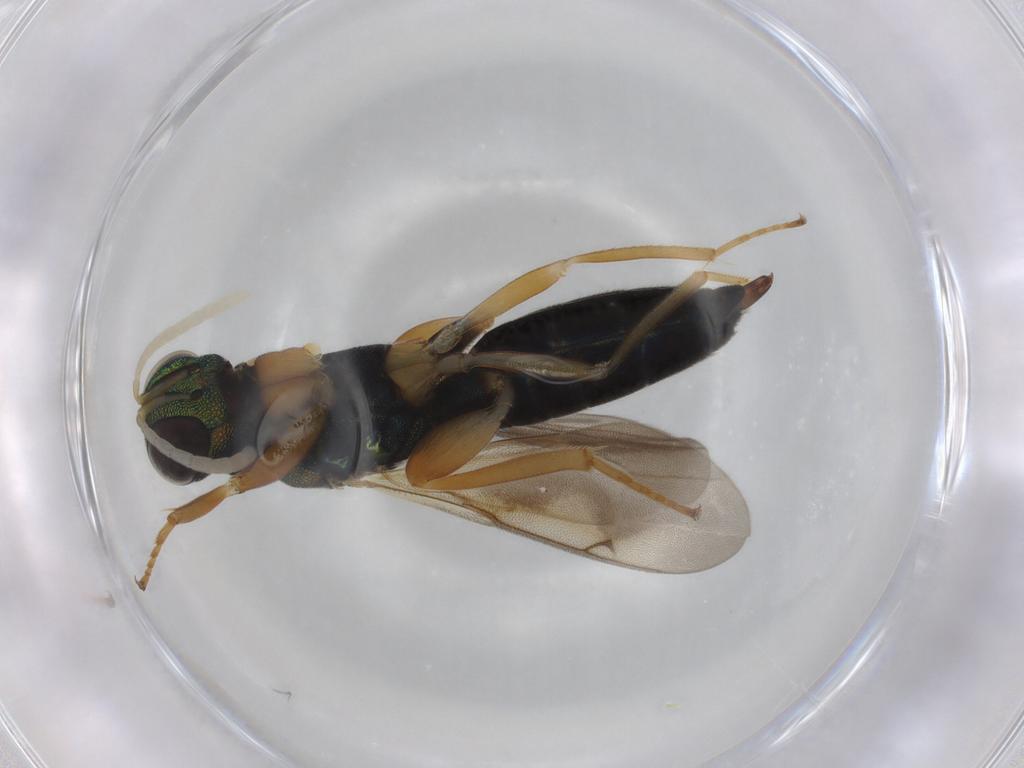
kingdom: Animalia
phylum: Arthropoda
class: Insecta
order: Hymenoptera
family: Lyciscidae
